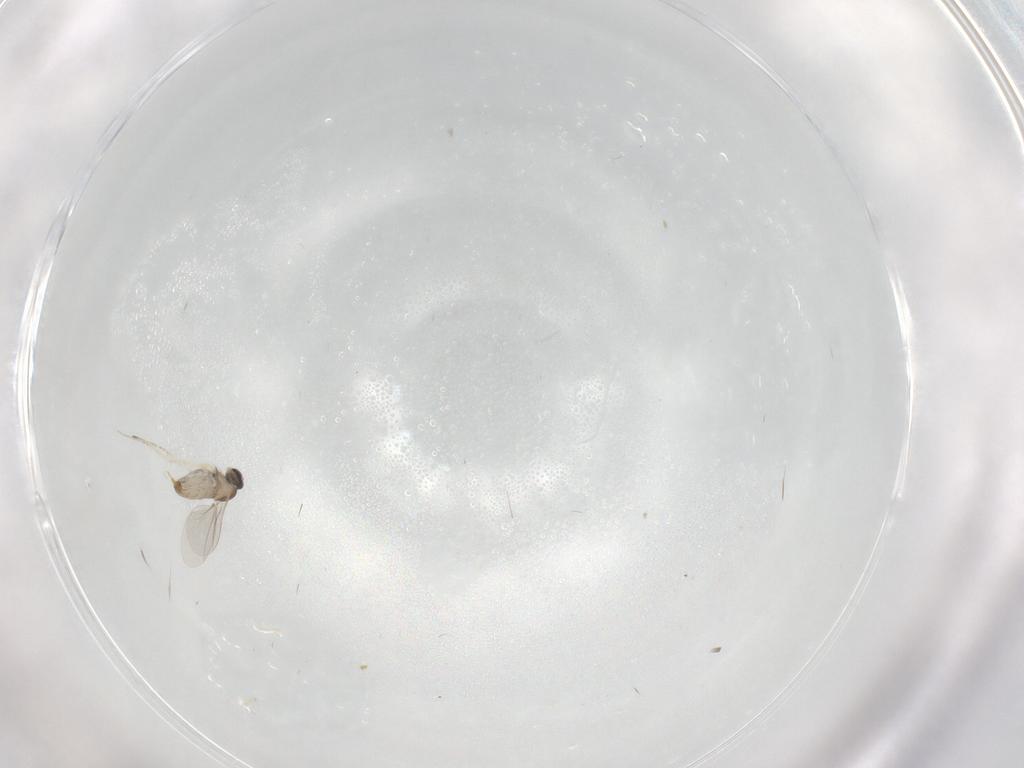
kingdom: Animalia
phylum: Arthropoda
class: Insecta
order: Diptera
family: Cecidomyiidae
